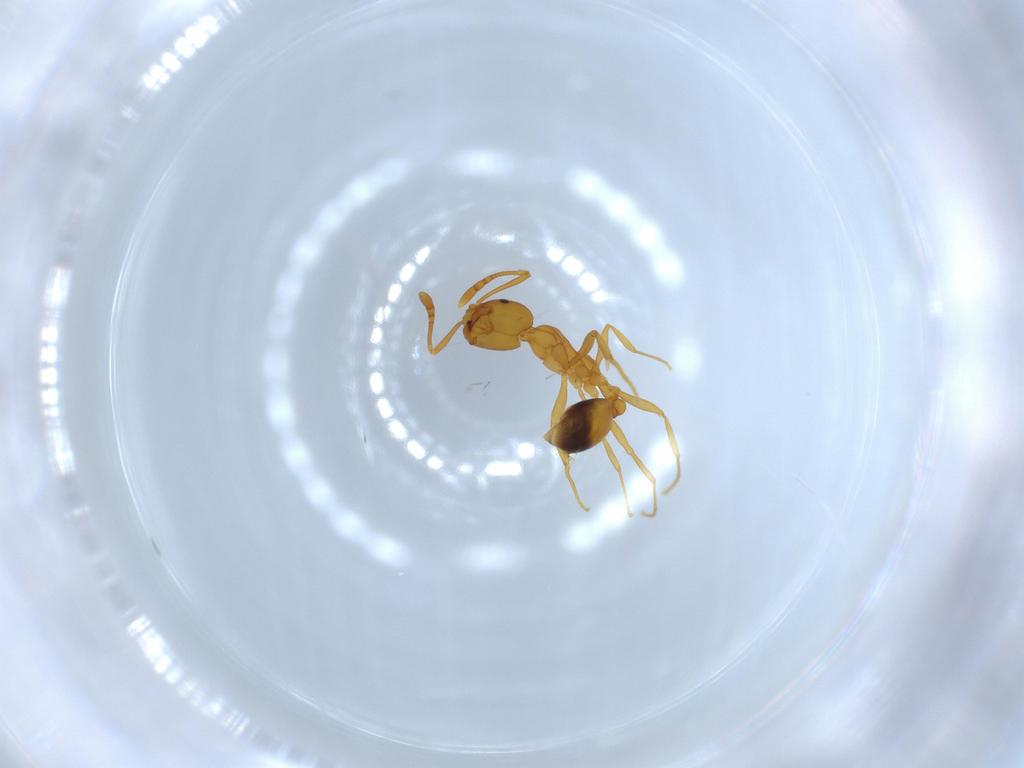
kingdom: Animalia
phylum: Arthropoda
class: Insecta
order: Hymenoptera
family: Formicidae
